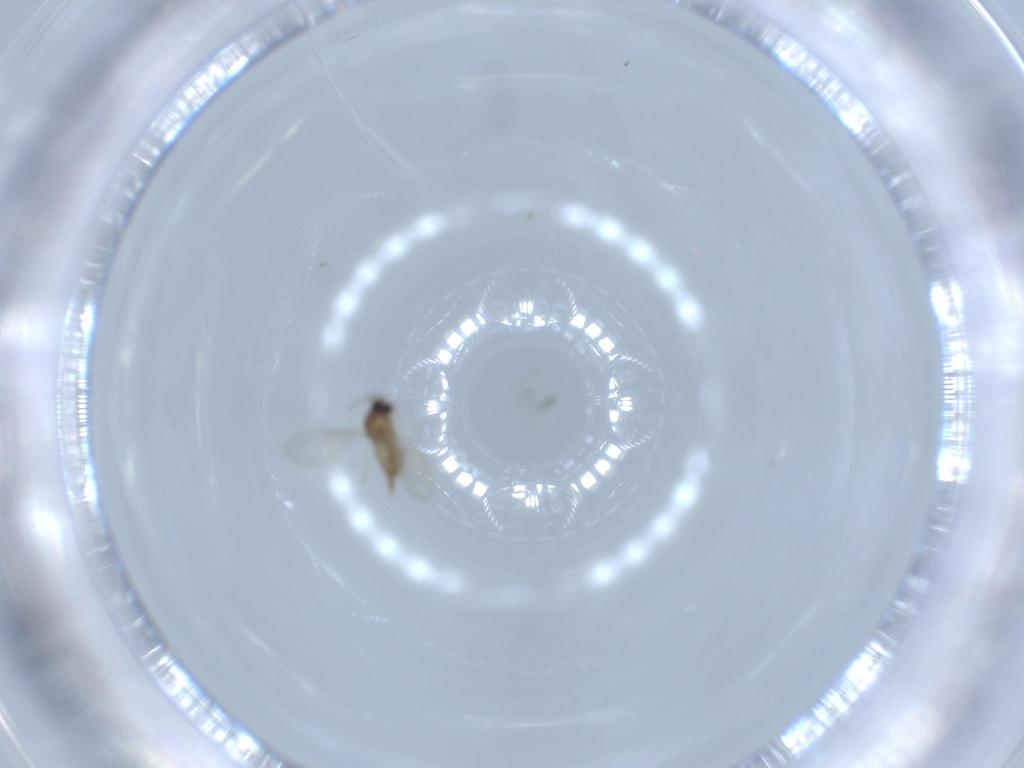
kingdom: Animalia
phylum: Arthropoda
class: Insecta
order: Diptera
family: Cecidomyiidae
